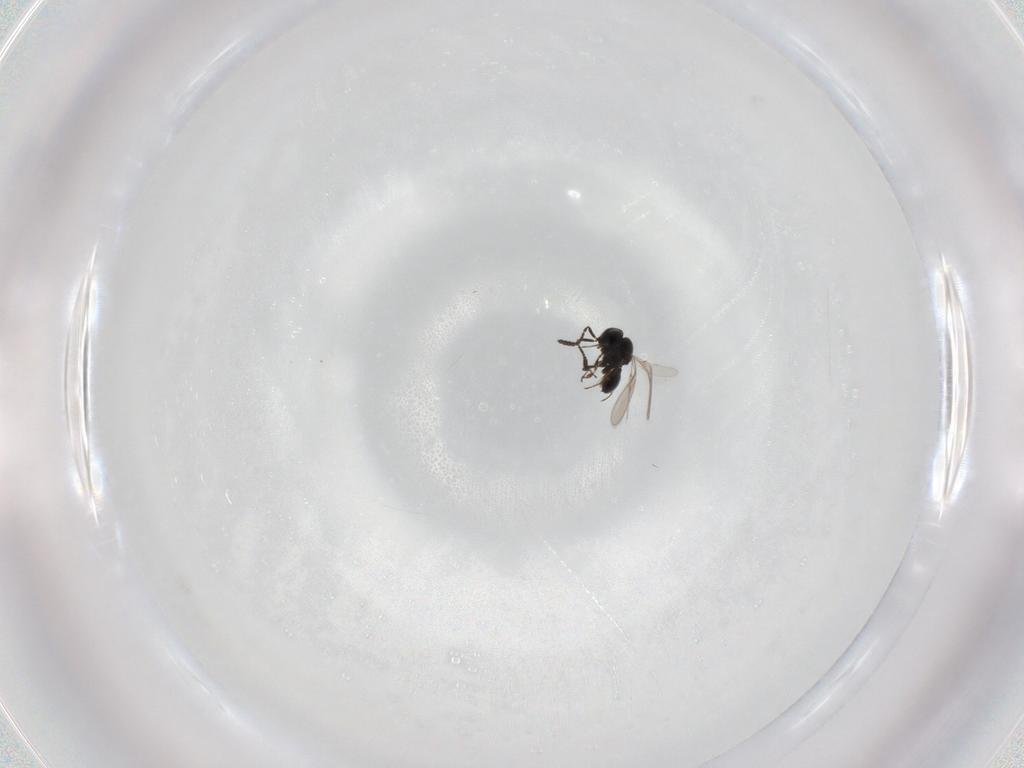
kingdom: Animalia
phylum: Arthropoda
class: Insecta
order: Hymenoptera
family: Scelionidae
